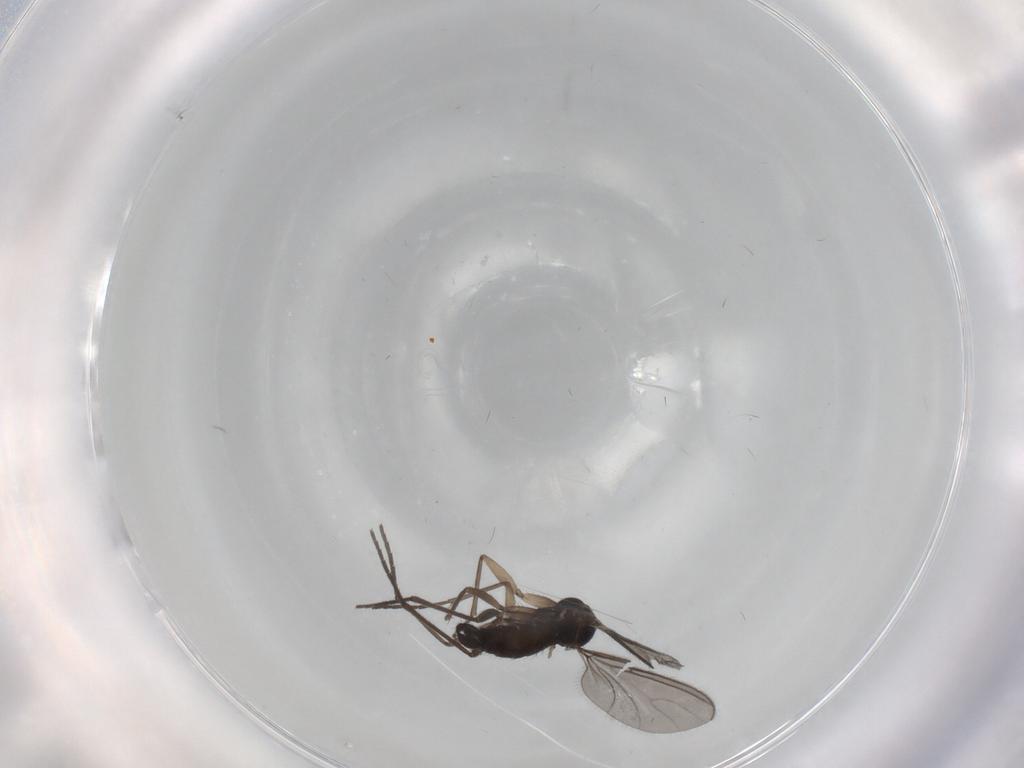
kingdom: Animalia
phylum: Arthropoda
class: Insecta
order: Diptera
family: Sciaridae
